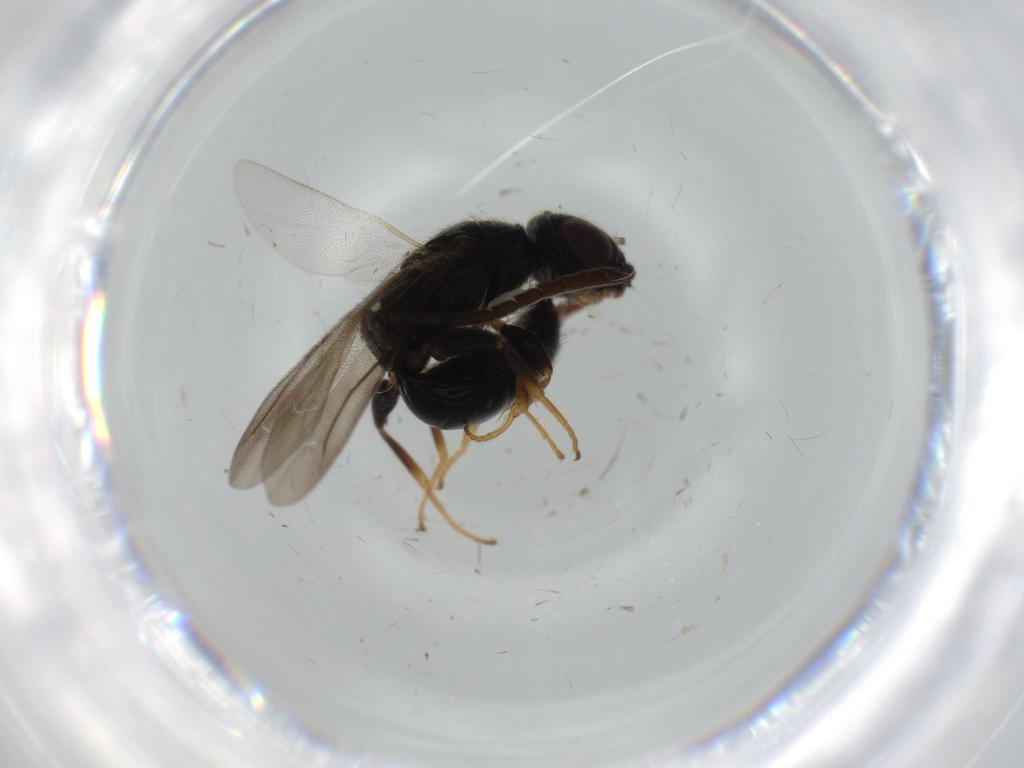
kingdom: Animalia
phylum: Arthropoda
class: Insecta
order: Hymenoptera
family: Bethylidae
